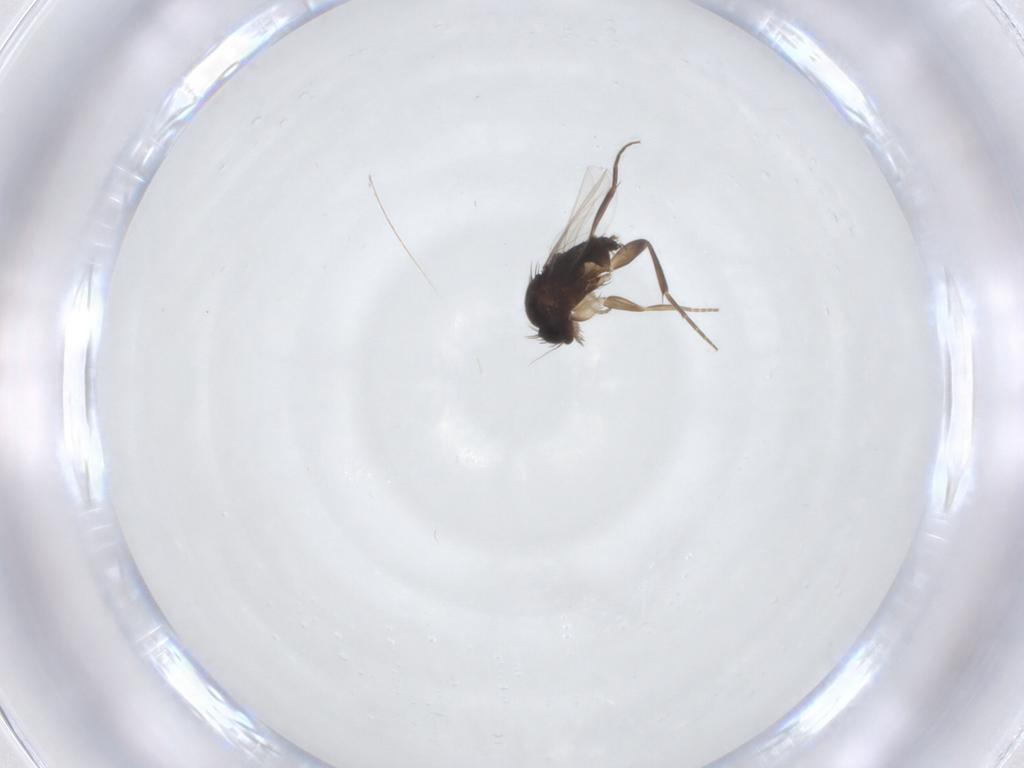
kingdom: Animalia
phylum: Arthropoda
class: Insecta
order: Diptera
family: Phoridae
